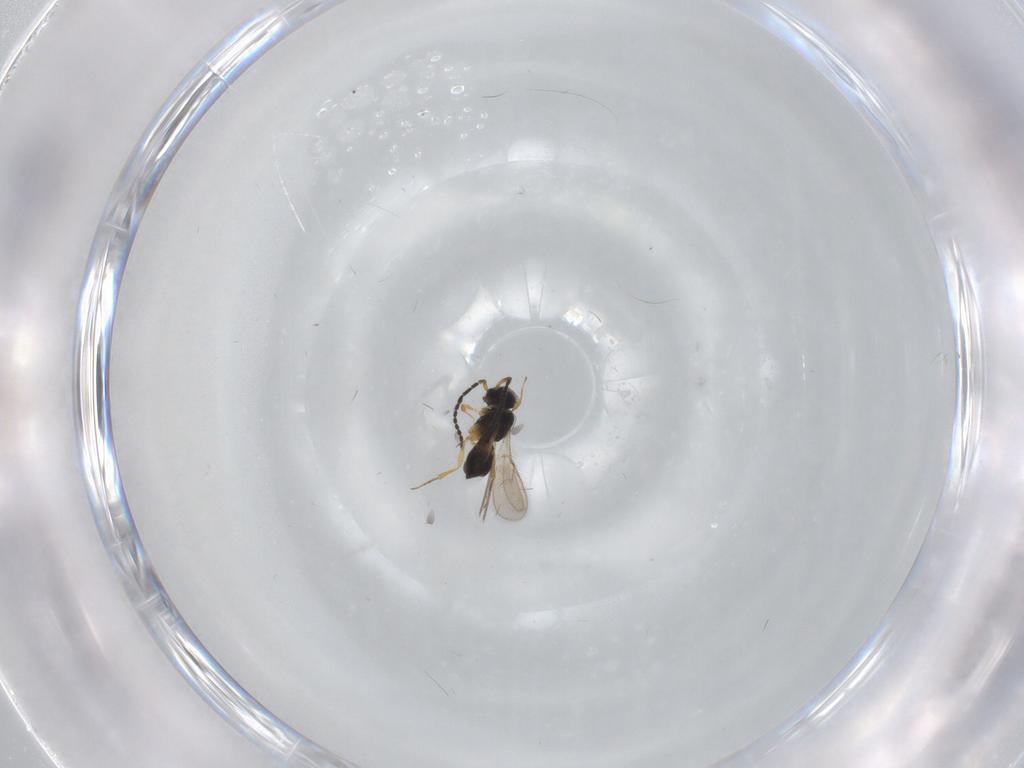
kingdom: Animalia
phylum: Arthropoda
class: Insecta
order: Hymenoptera
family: Scelionidae
